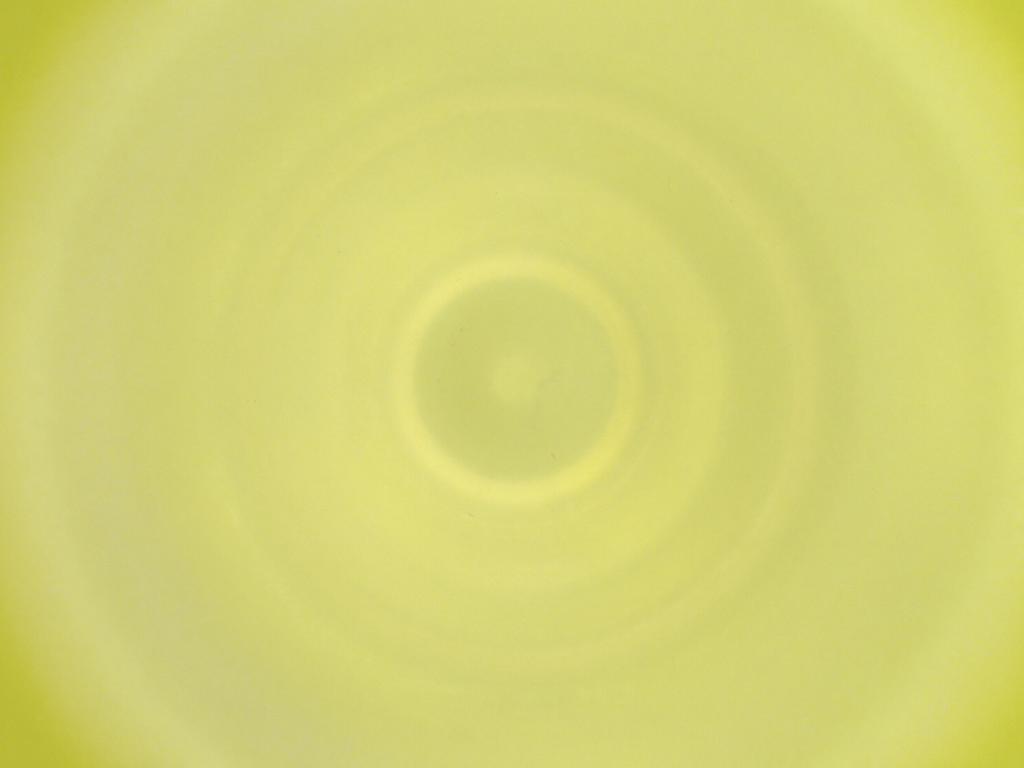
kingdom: Animalia
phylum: Arthropoda
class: Insecta
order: Diptera
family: Cecidomyiidae
